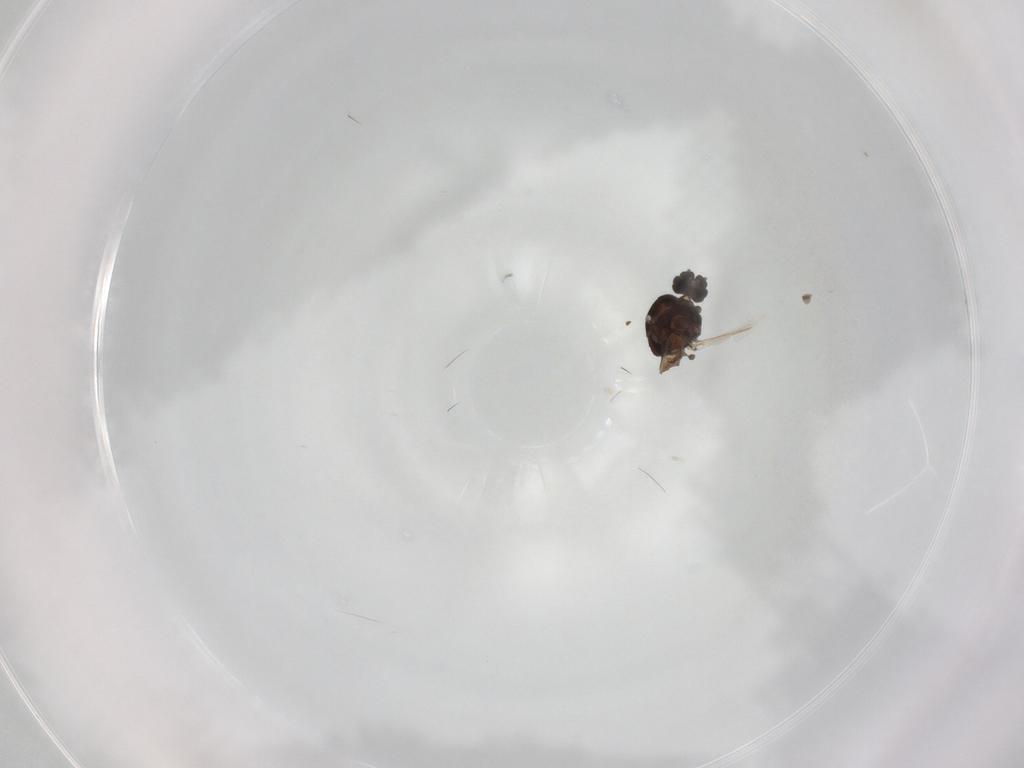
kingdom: Animalia
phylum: Arthropoda
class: Insecta
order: Diptera
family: Ceratopogonidae
